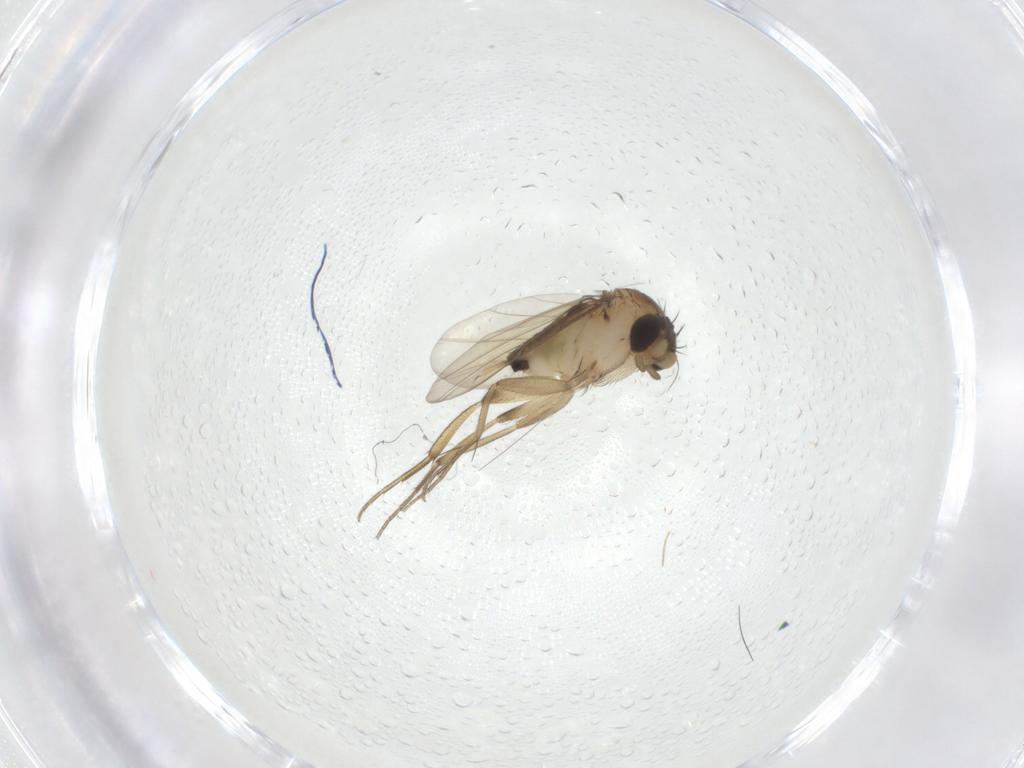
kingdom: Animalia
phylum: Arthropoda
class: Insecta
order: Diptera
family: Phoridae
